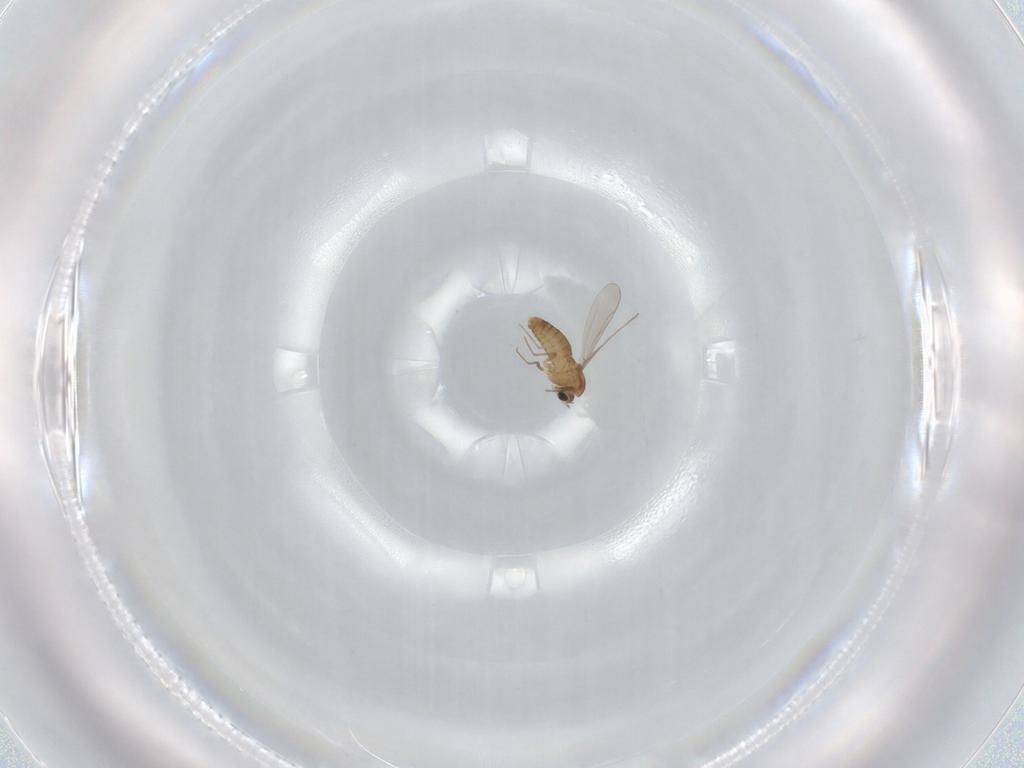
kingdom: Animalia
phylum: Arthropoda
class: Insecta
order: Diptera
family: Chironomidae
